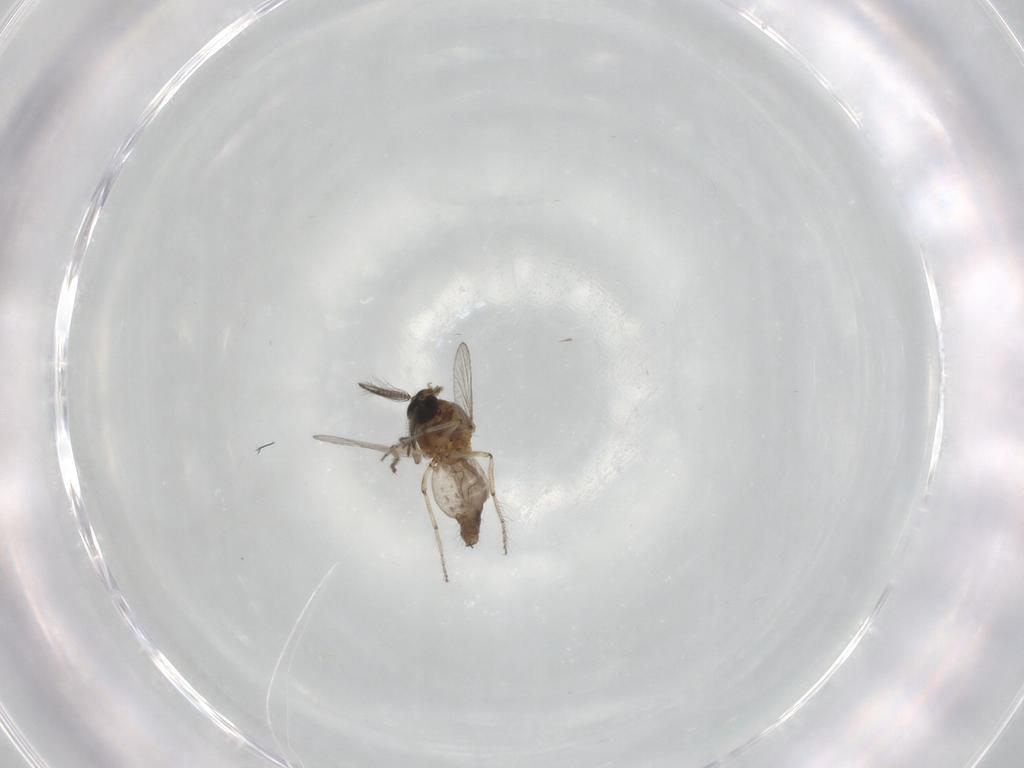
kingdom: Animalia
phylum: Arthropoda
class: Insecta
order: Diptera
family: Ceratopogonidae
